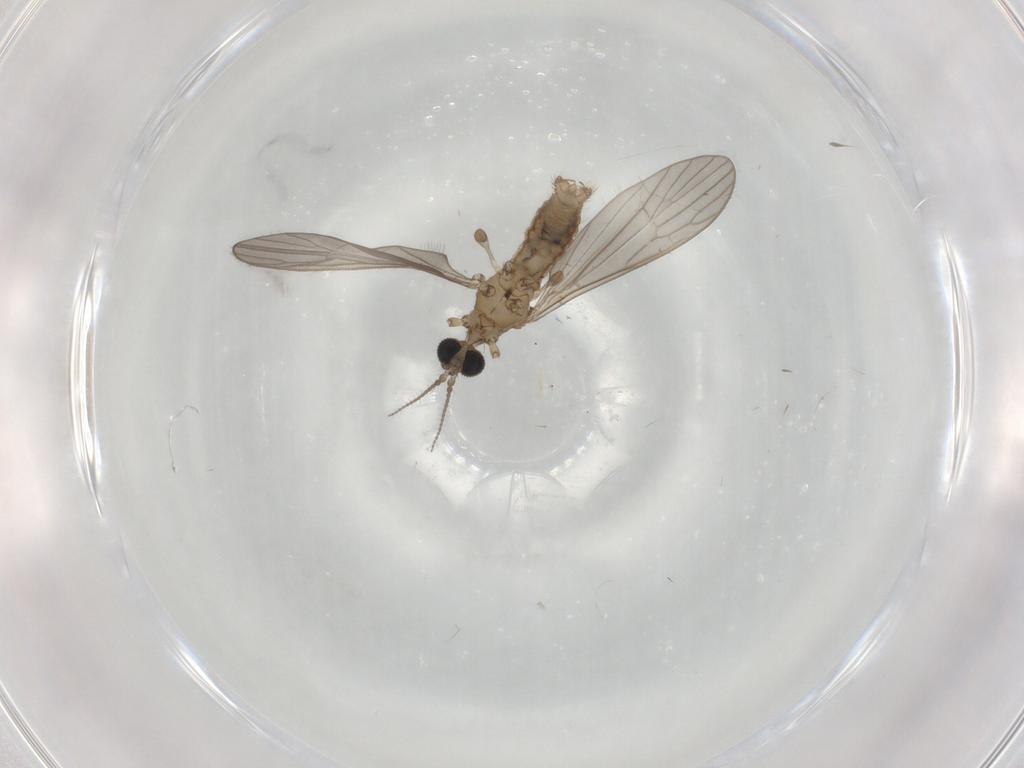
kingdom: Animalia
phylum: Arthropoda
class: Insecta
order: Diptera
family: Limoniidae
